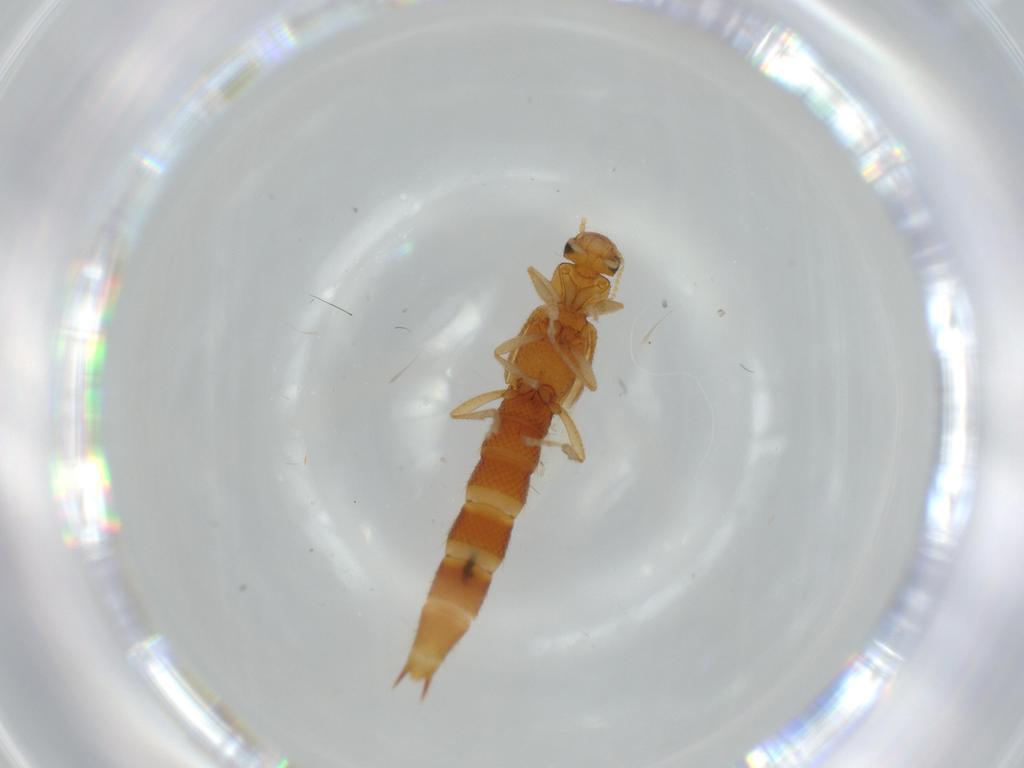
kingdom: Animalia
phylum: Arthropoda
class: Insecta
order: Coleoptera
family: Staphylinidae
